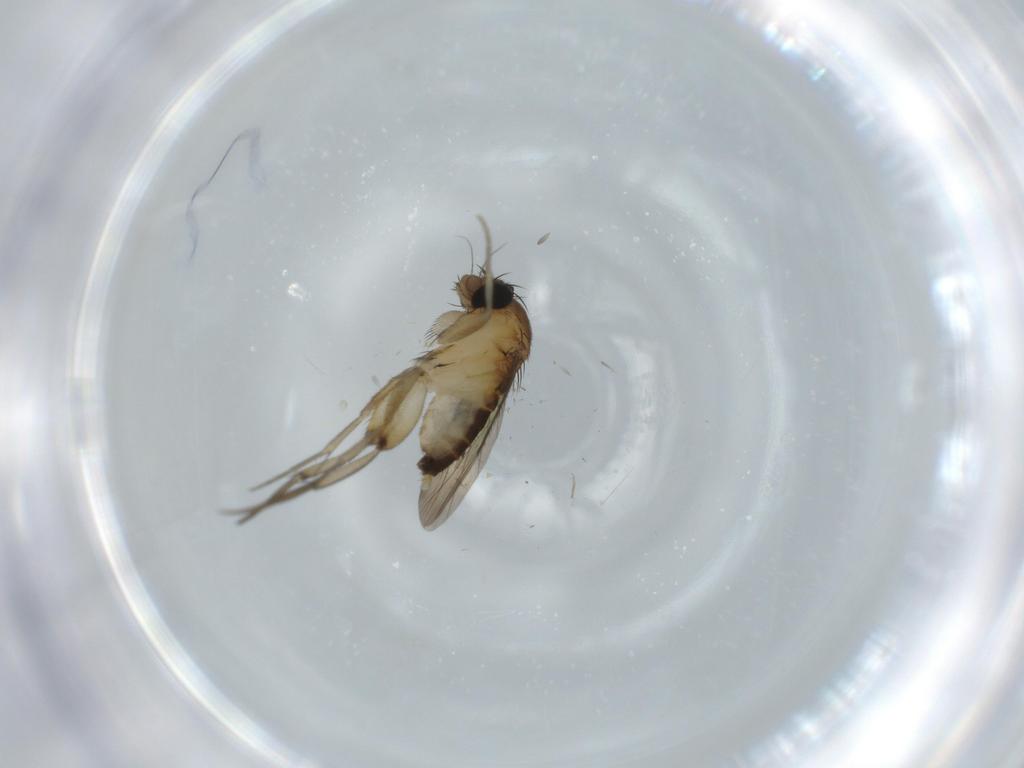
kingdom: Animalia
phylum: Arthropoda
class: Insecta
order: Diptera
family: Phoridae
